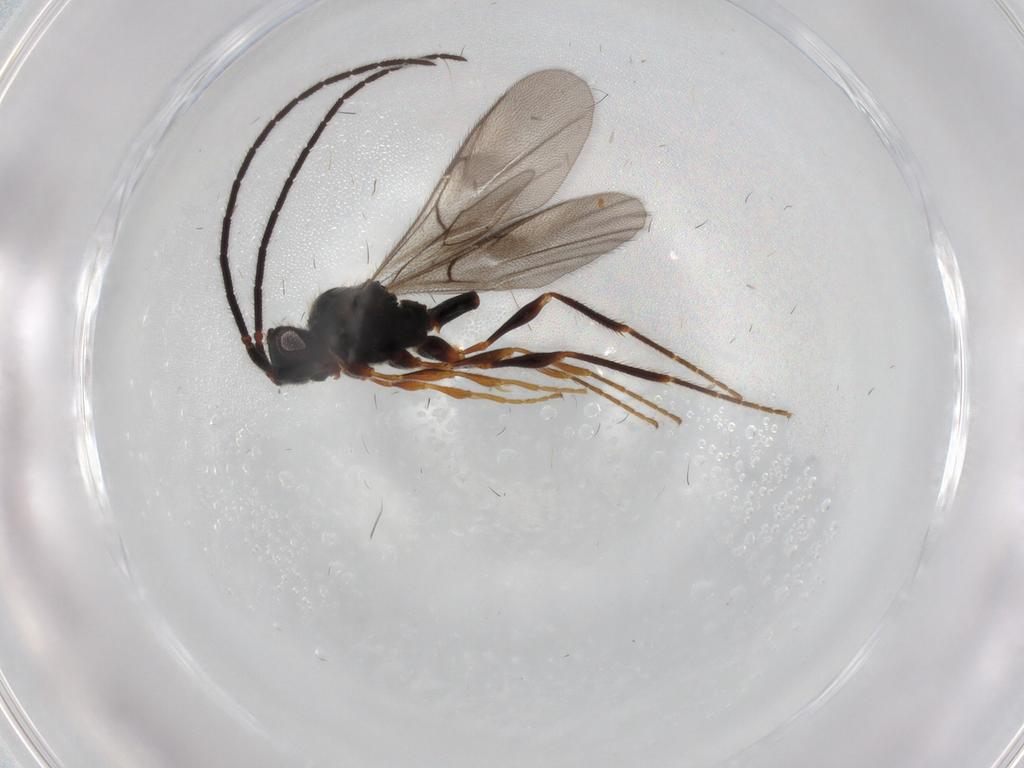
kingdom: Animalia
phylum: Arthropoda
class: Insecta
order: Hymenoptera
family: Diapriidae
